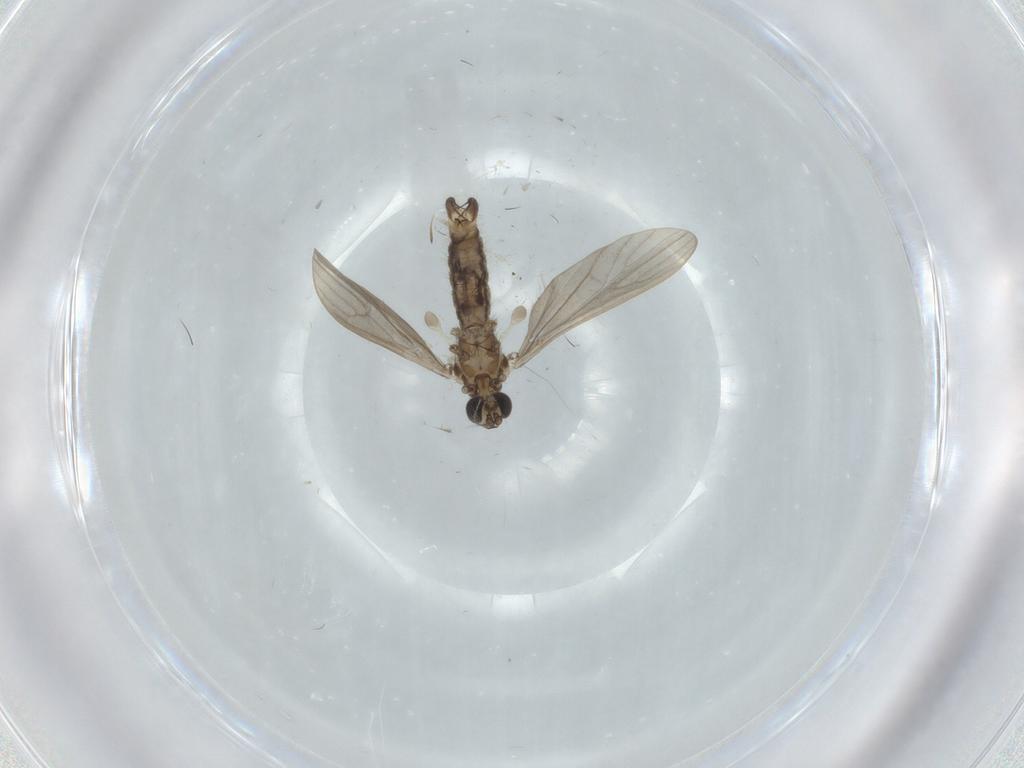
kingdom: Animalia
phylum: Arthropoda
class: Insecta
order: Diptera
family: Limoniidae
